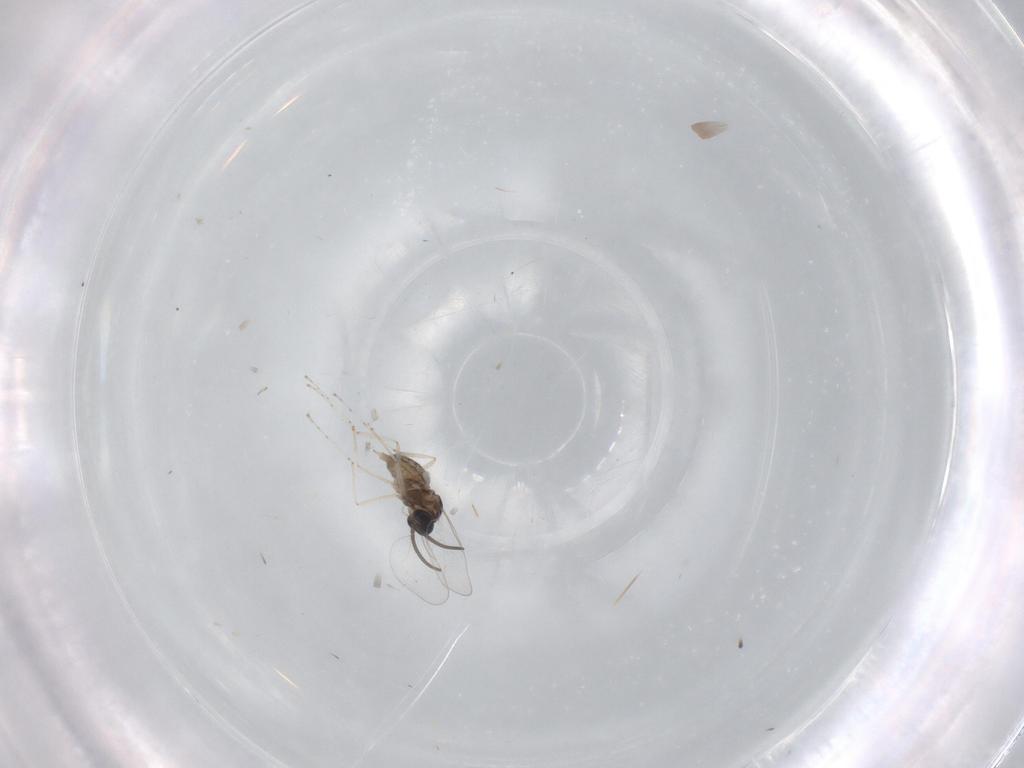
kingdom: Animalia
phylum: Arthropoda
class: Insecta
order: Diptera
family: Cecidomyiidae
